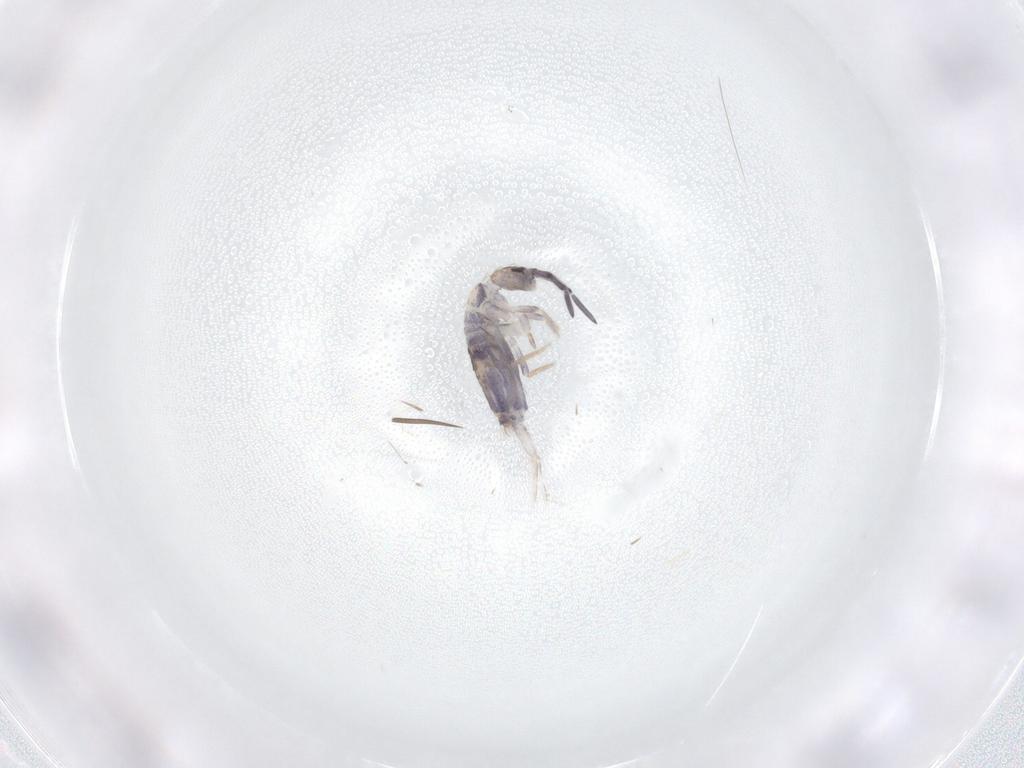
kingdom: Animalia
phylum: Arthropoda
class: Collembola
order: Poduromorpha
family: Hypogastruridae
